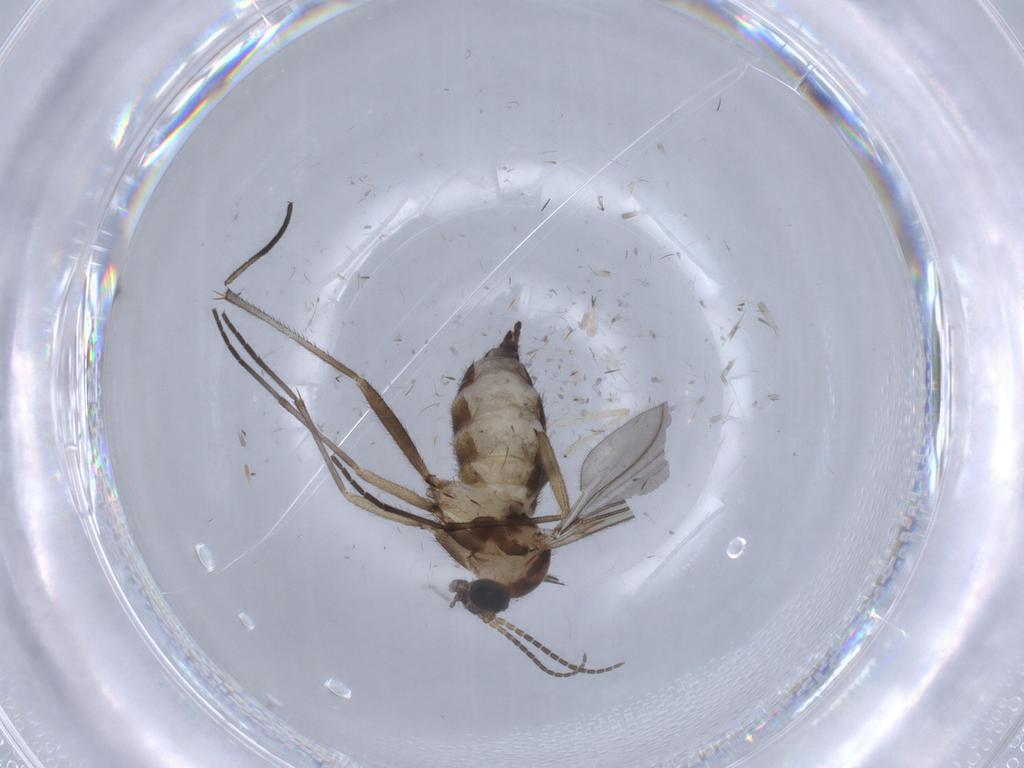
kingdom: Animalia
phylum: Arthropoda
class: Insecta
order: Diptera
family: Sciaridae
